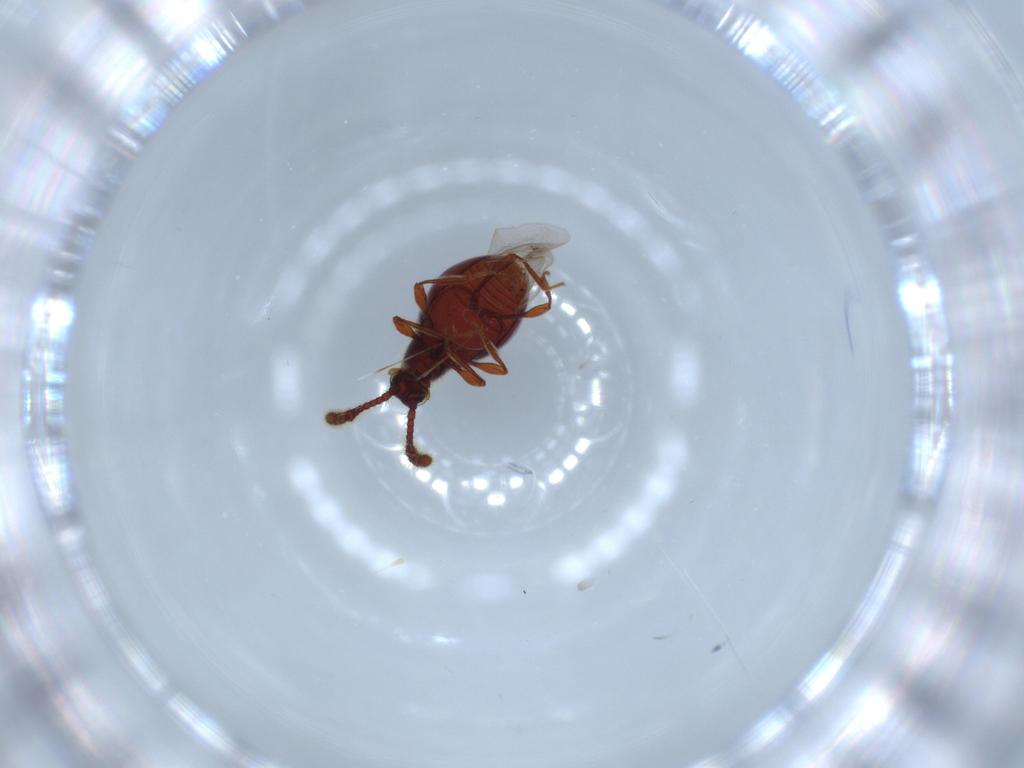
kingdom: Animalia
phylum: Arthropoda
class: Insecta
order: Coleoptera
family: Staphylinidae
